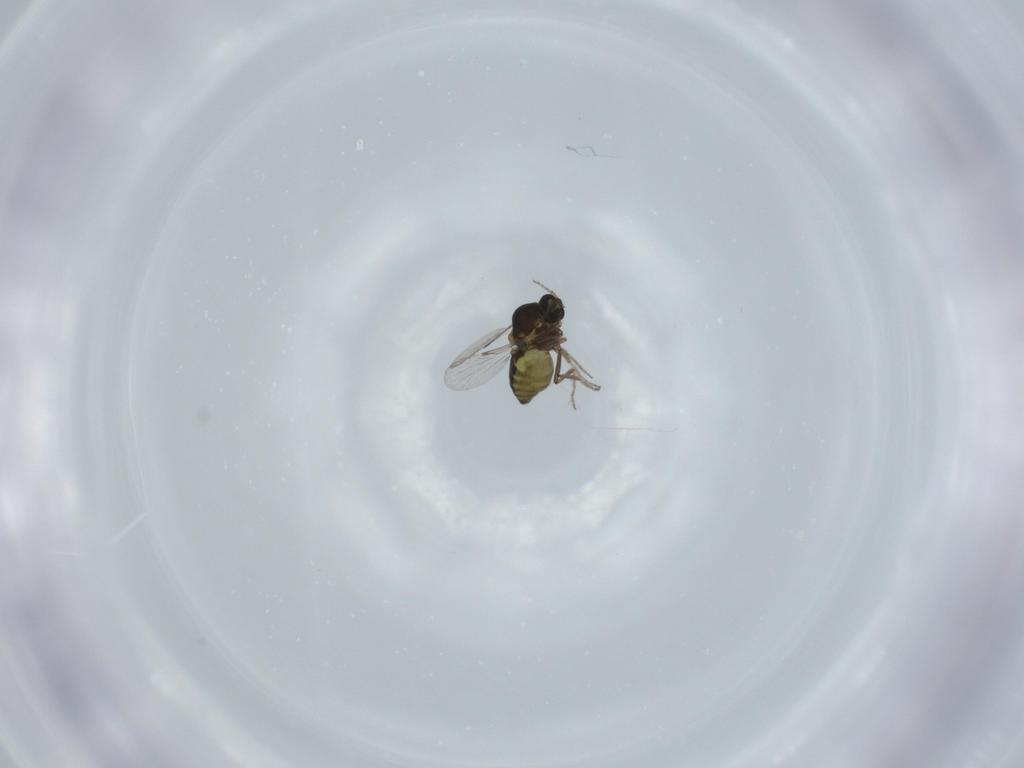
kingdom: Animalia
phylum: Arthropoda
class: Insecta
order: Diptera
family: Ceratopogonidae
